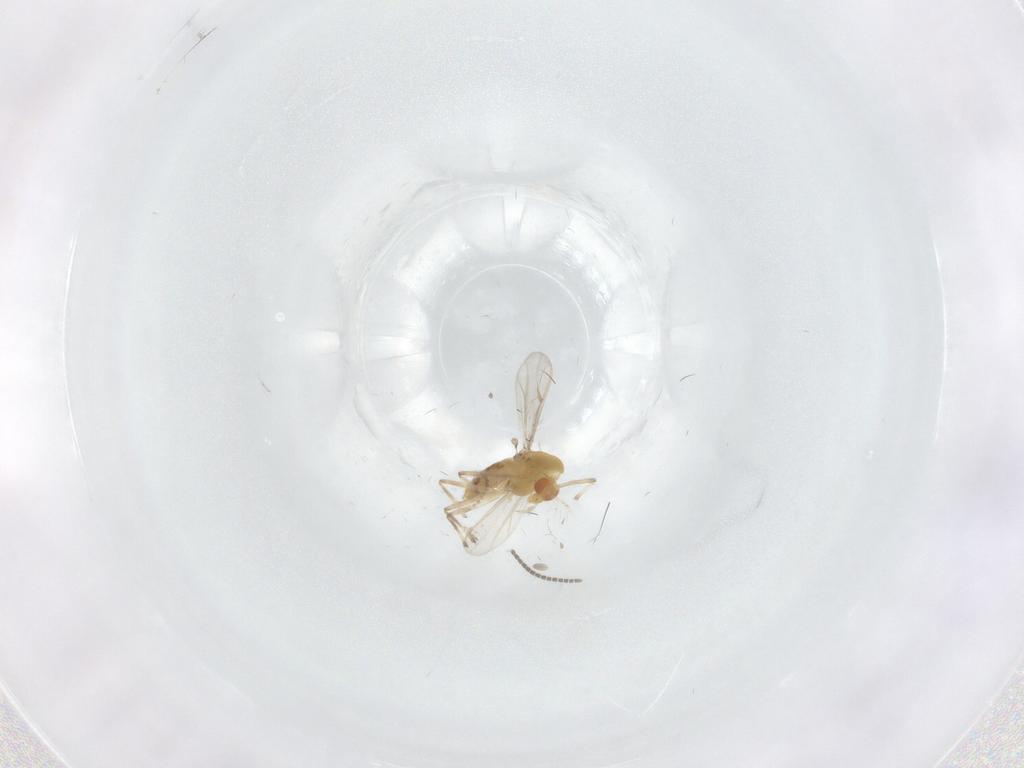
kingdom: Animalia
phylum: Arthropoda
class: Insecta
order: Diptera
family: Chironomidae
